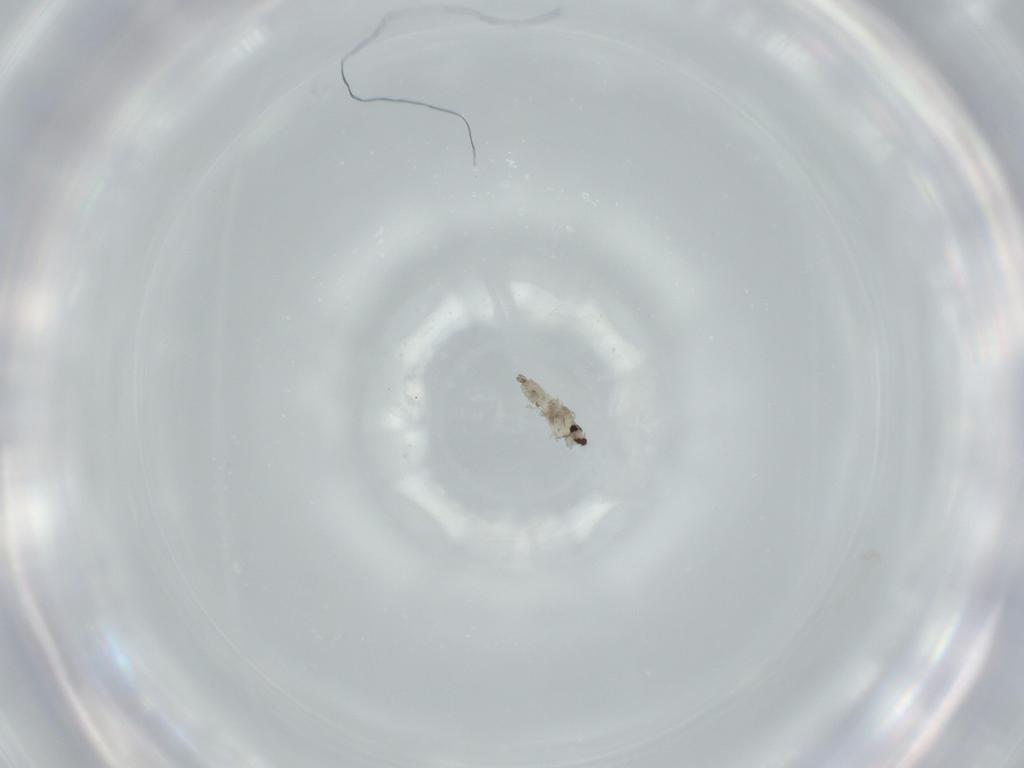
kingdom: Animalia
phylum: Arthropoda
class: Insecta
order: Diptera
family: Cecidomyiidae
